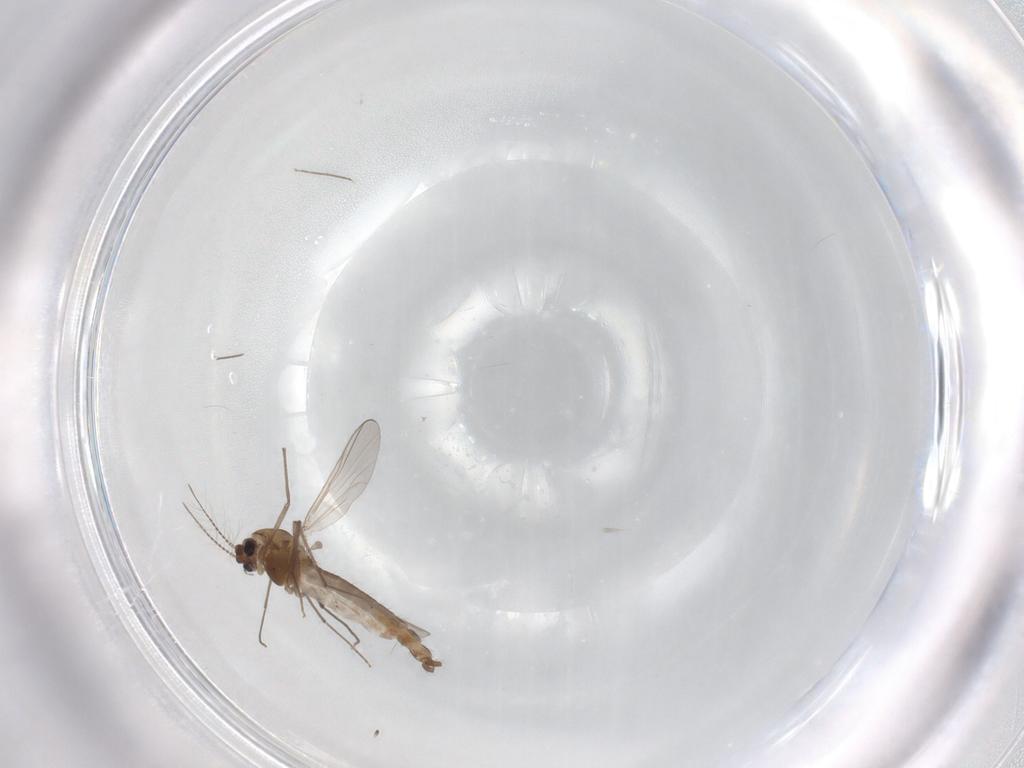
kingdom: Animalia
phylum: Arthropoda
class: Insecta
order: Diptera
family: Chironomidae
